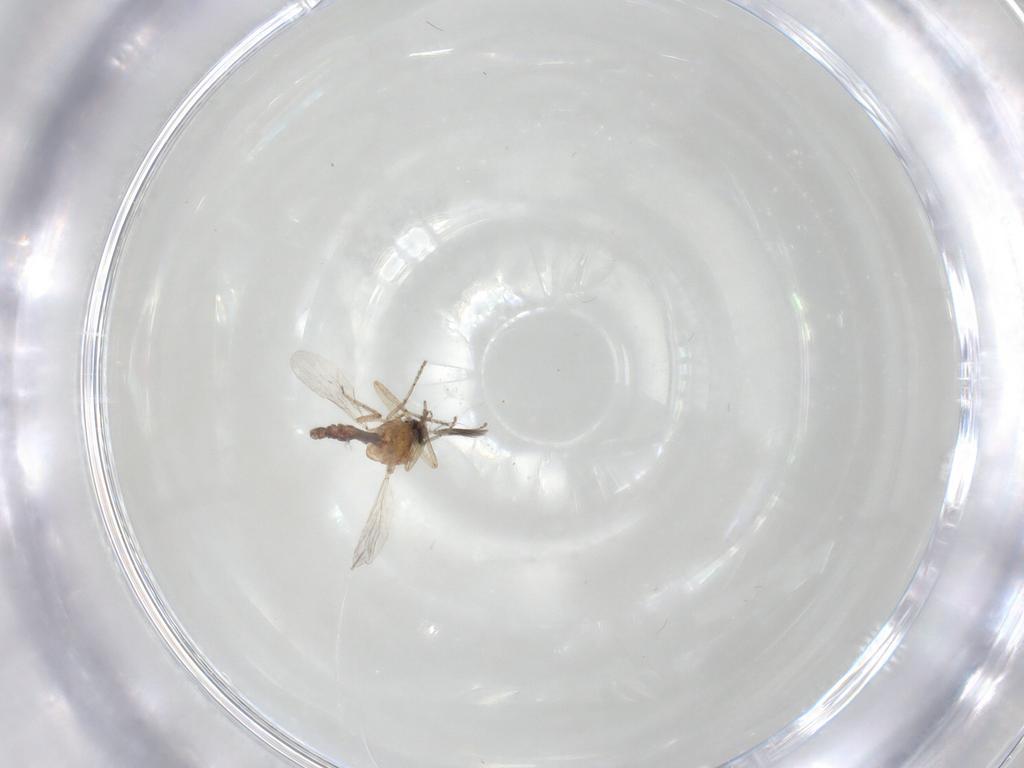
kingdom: Animalia
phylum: Arthropoda
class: Insecta
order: Diptera
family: Ceratopogonidae
